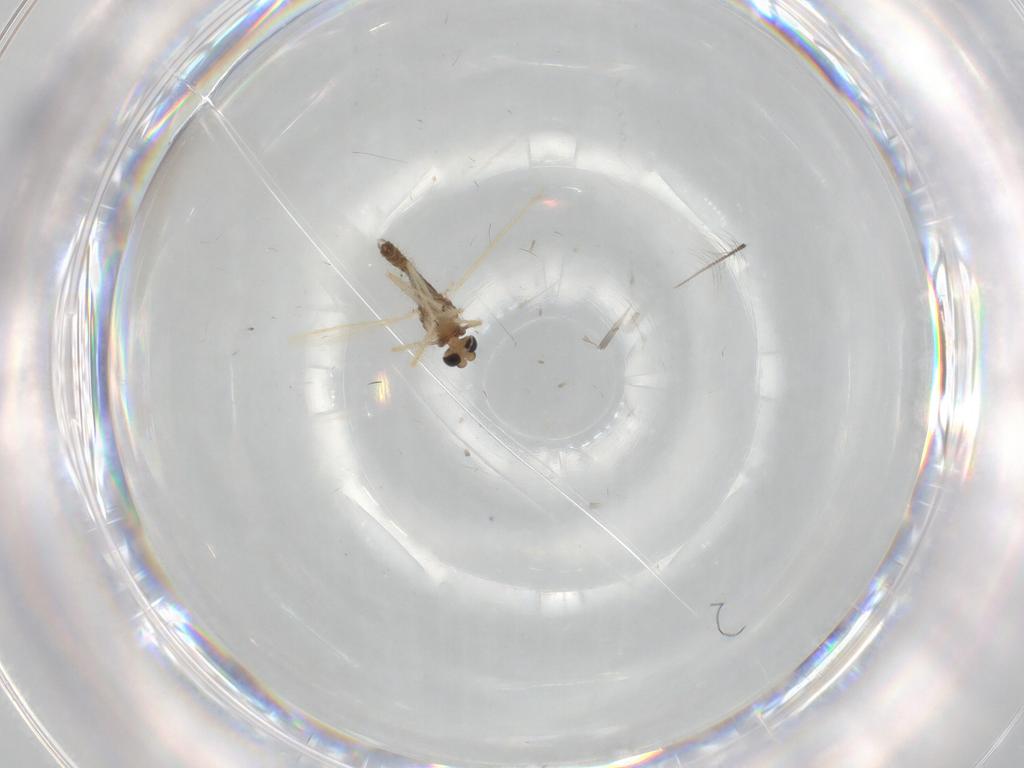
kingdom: Animalia
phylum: Arthropoda
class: Insecta
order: Diptera
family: Chironomidae
